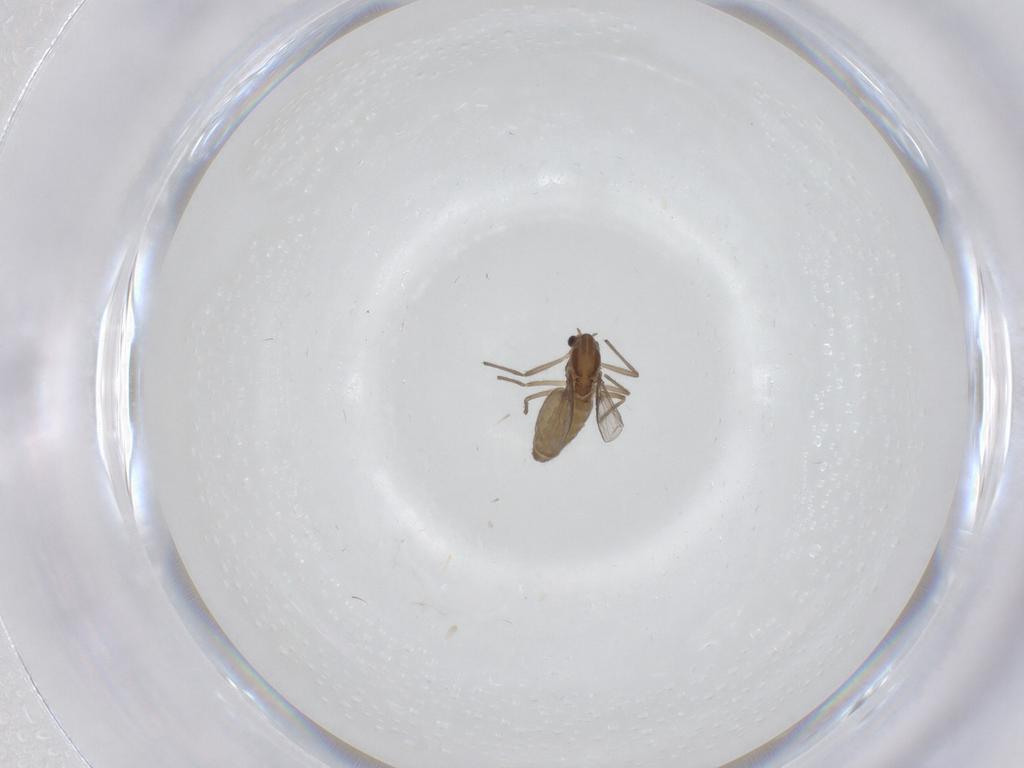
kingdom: Animalia
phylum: Arthropoda
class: Insecta
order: Diptera
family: Chironomidae
